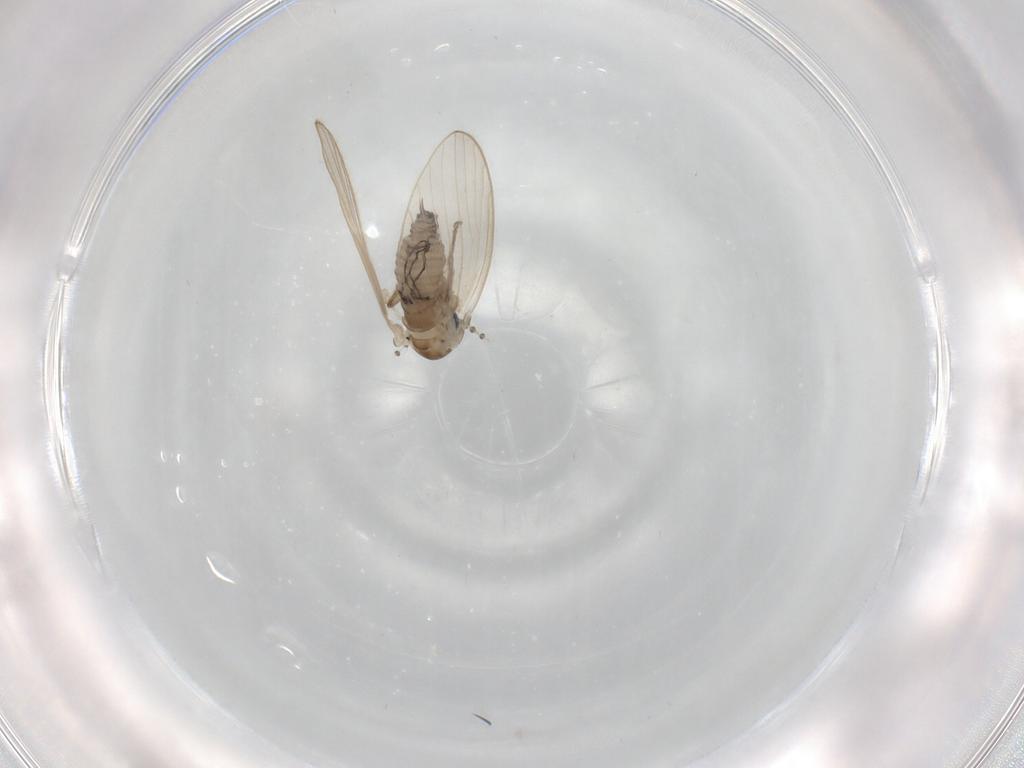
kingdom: Animalia
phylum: Arthropoda
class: Insecta
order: Diptera
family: Psychodidae
